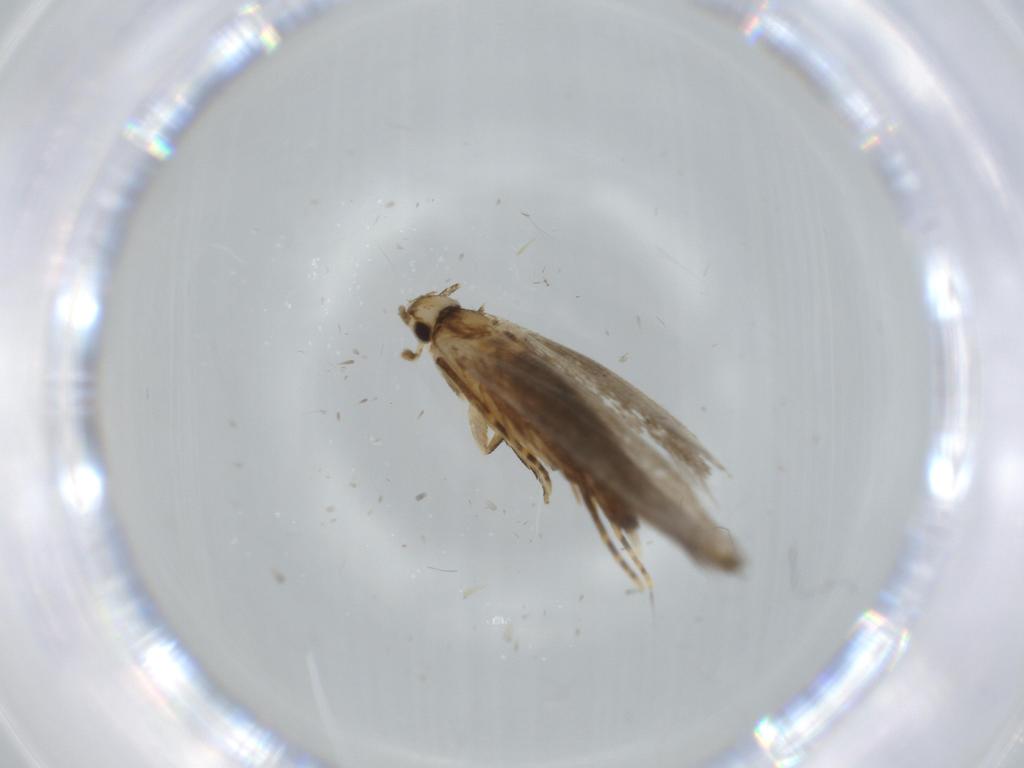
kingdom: Animalia
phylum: Arthropoda
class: Insecta
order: Lepidoptera
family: Tineidae
